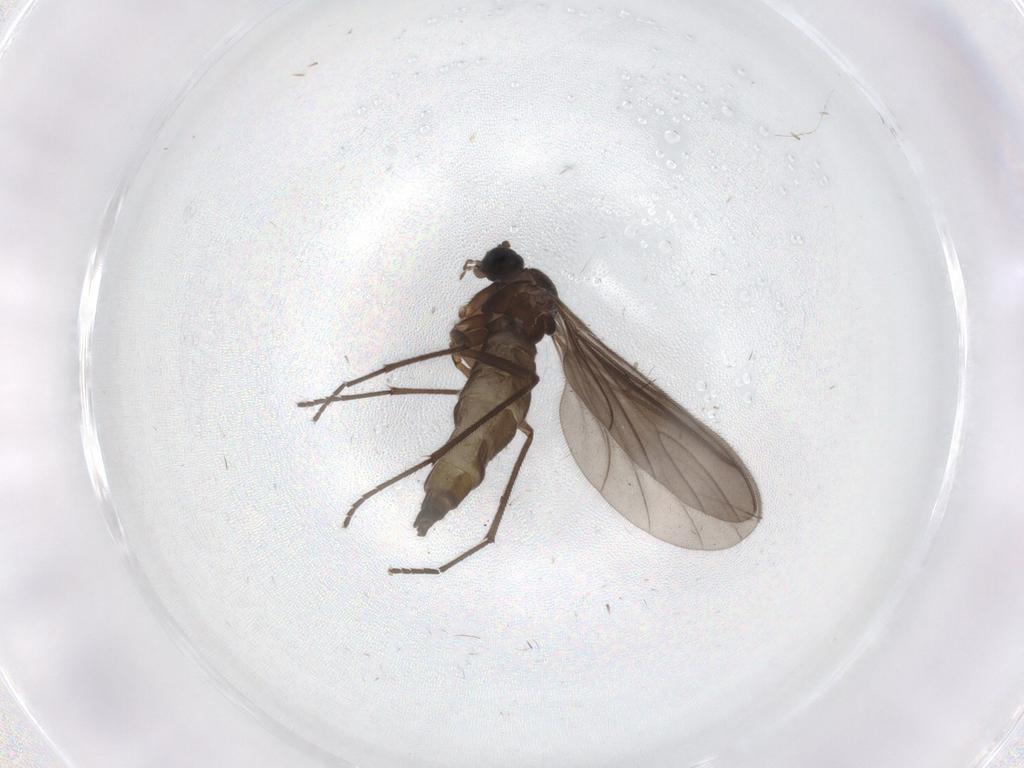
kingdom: Animalia
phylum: Arthropoda
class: Insecta
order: Diptera
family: Sciaridae
